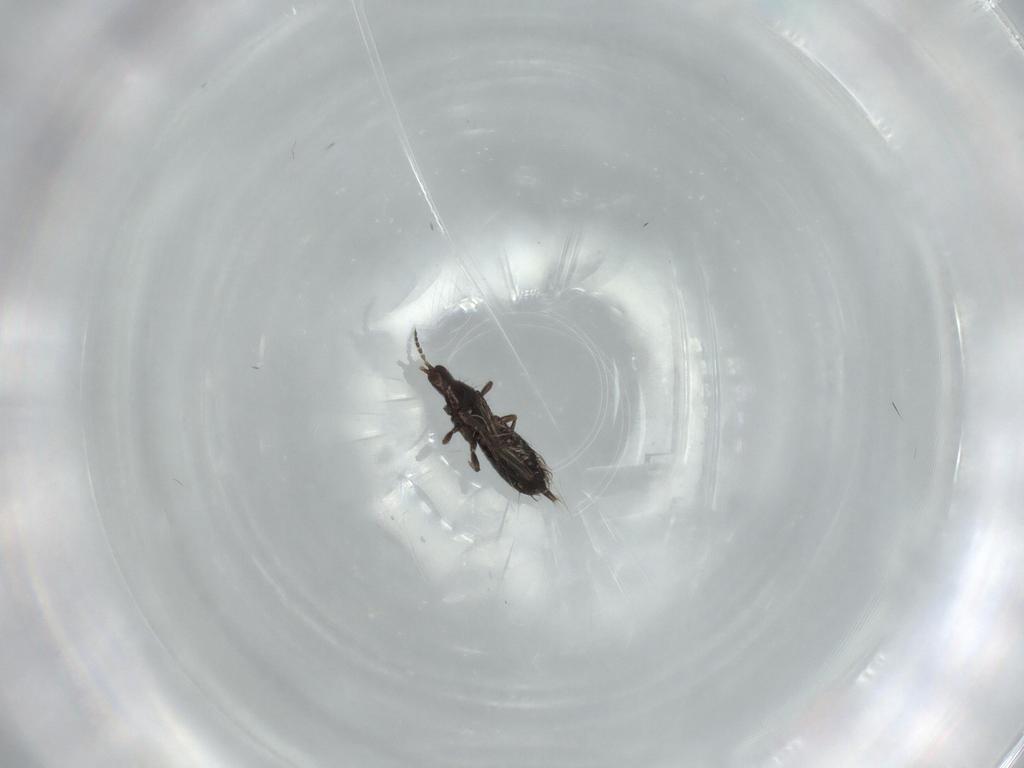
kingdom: Animalia
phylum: Arthropoda
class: Insecta
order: Thysanoptera
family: Phlaeothripidae
